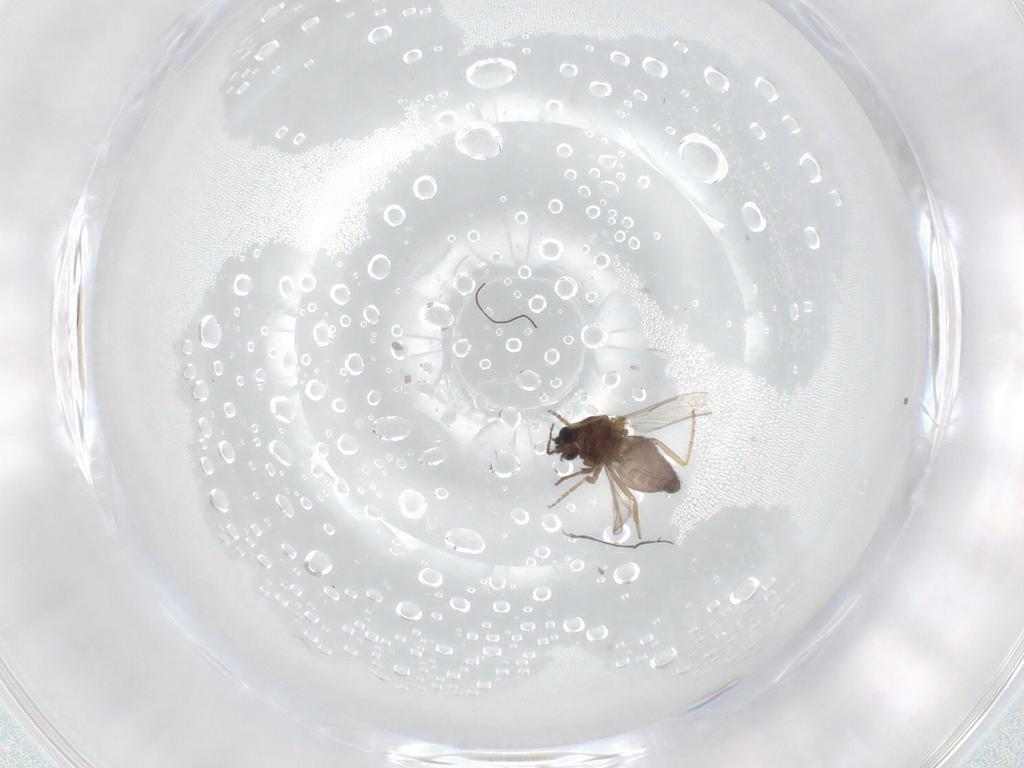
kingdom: Animalia
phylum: Arthropoda
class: Insecta
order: Diptera
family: Ceratopogonidae
